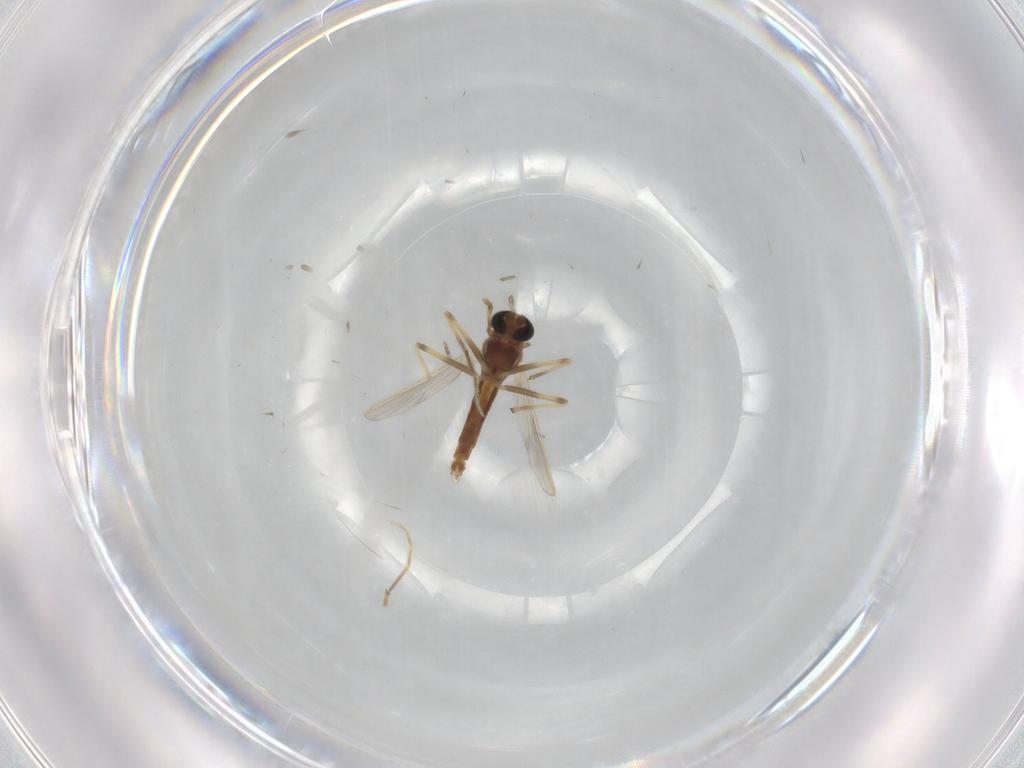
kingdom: Animalia
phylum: Arthropoda
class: Insecta
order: Diptera
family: Chironomidae
